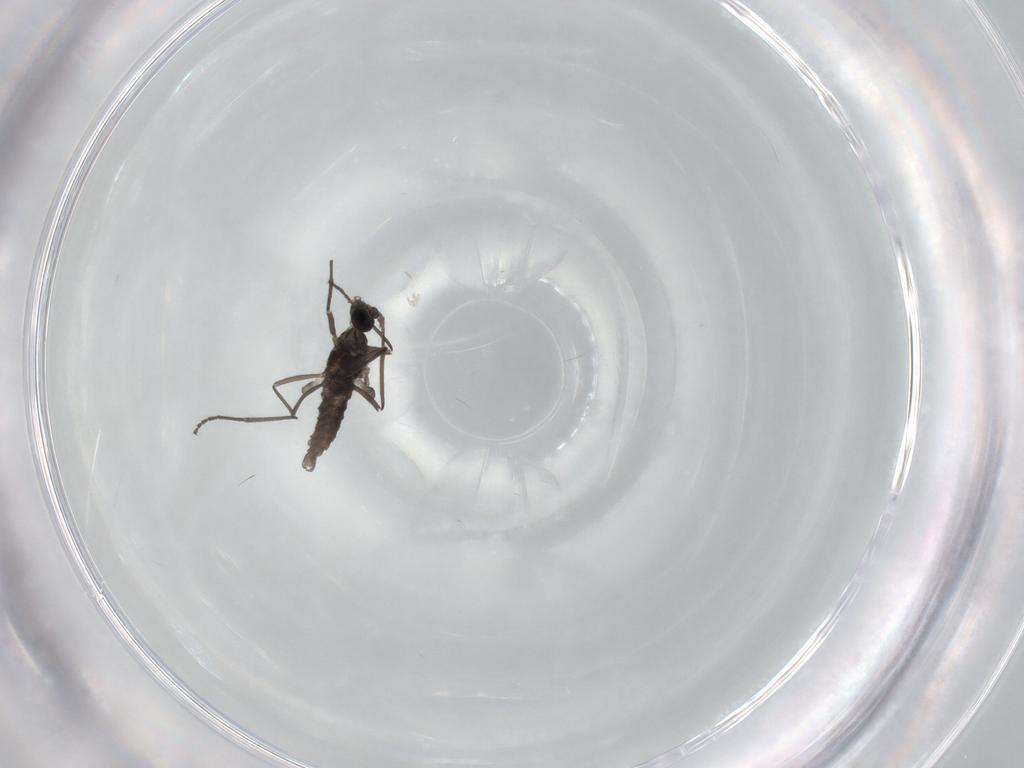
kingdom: Animalia
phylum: Arthropoda
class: Insecta
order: Diptera
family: Cecidomyiidae
